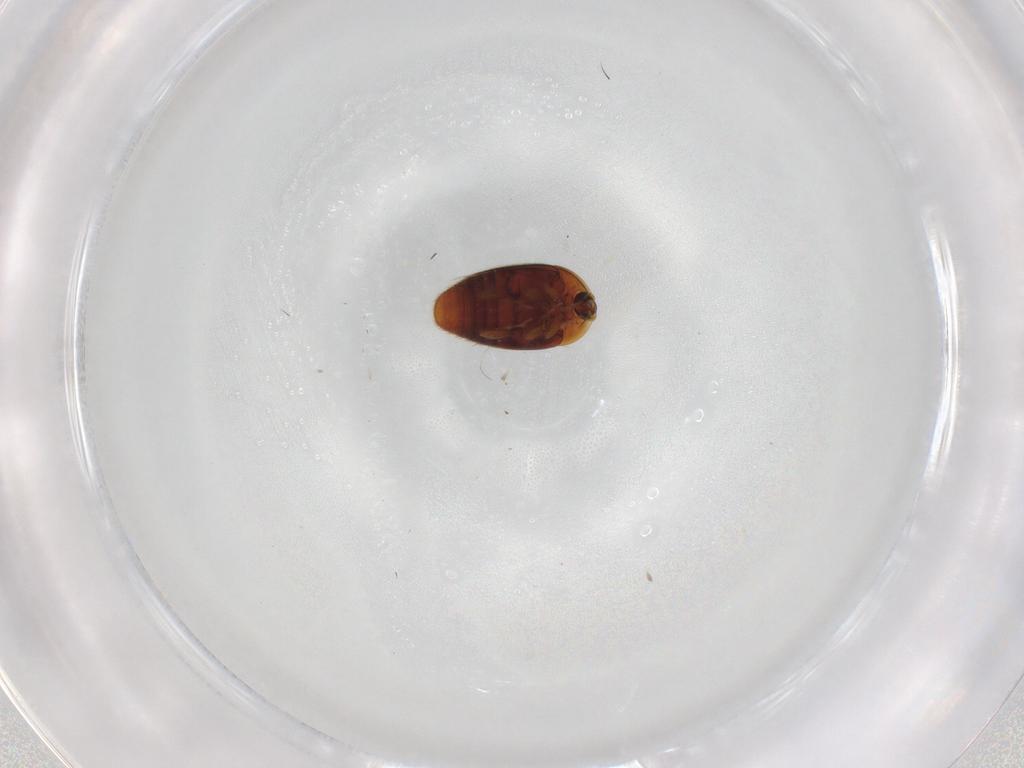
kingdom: Animalia
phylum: Arthropoda
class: Insecta
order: Coleoptera
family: Corylophidae
